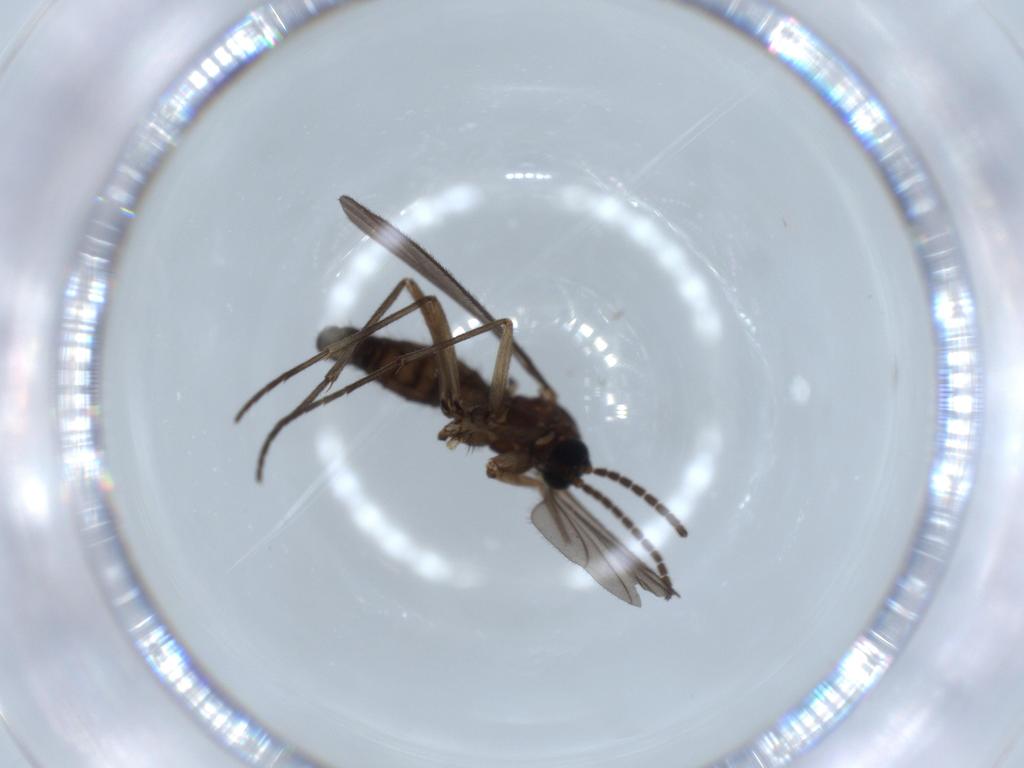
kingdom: Animalia
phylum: Arthropoda
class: Insecta
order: Diptera
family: Sciaridae
